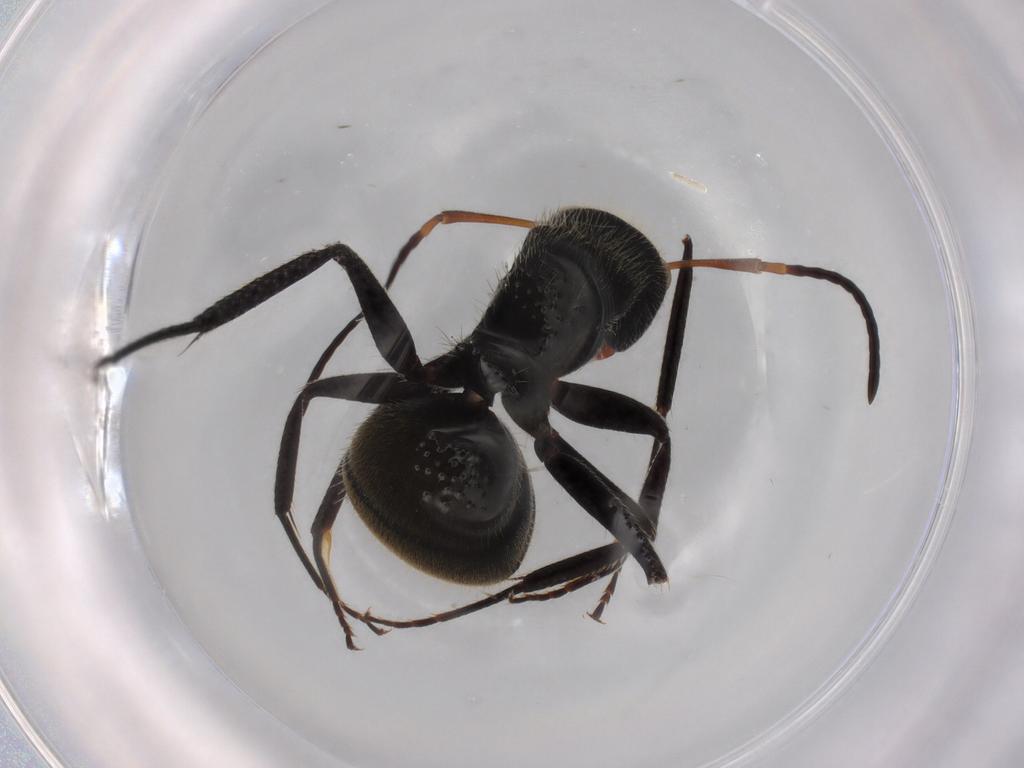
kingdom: Animalia
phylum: Arthropoda
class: Insecta
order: Hymenoptera
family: Formicidae
